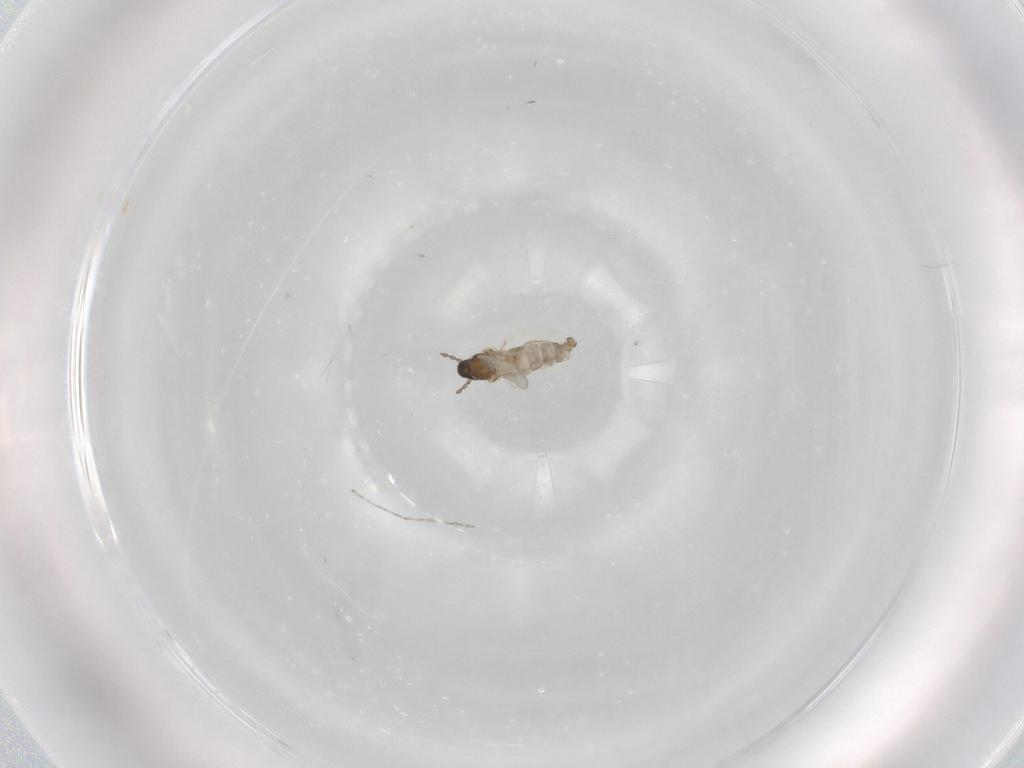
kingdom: Animalia
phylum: Arthropoda
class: Insecta
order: Diptera
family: Cecidomyiidae
